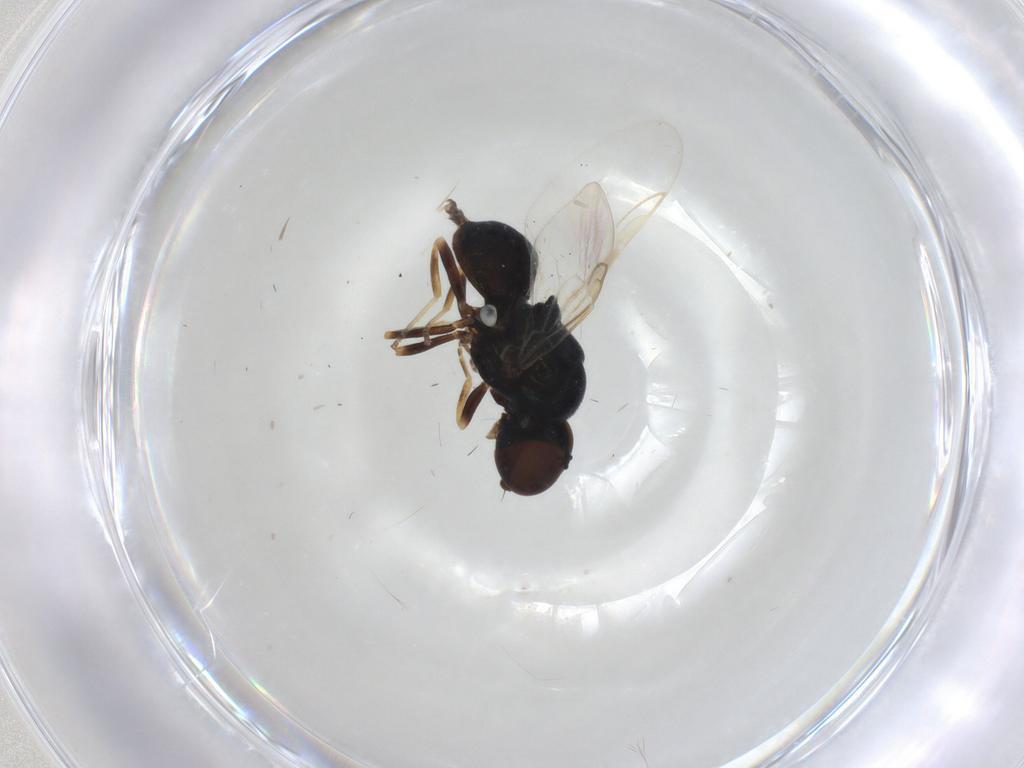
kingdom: Animalia
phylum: Arthropoda
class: Insecta
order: Diptera
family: Stratiomyidae
